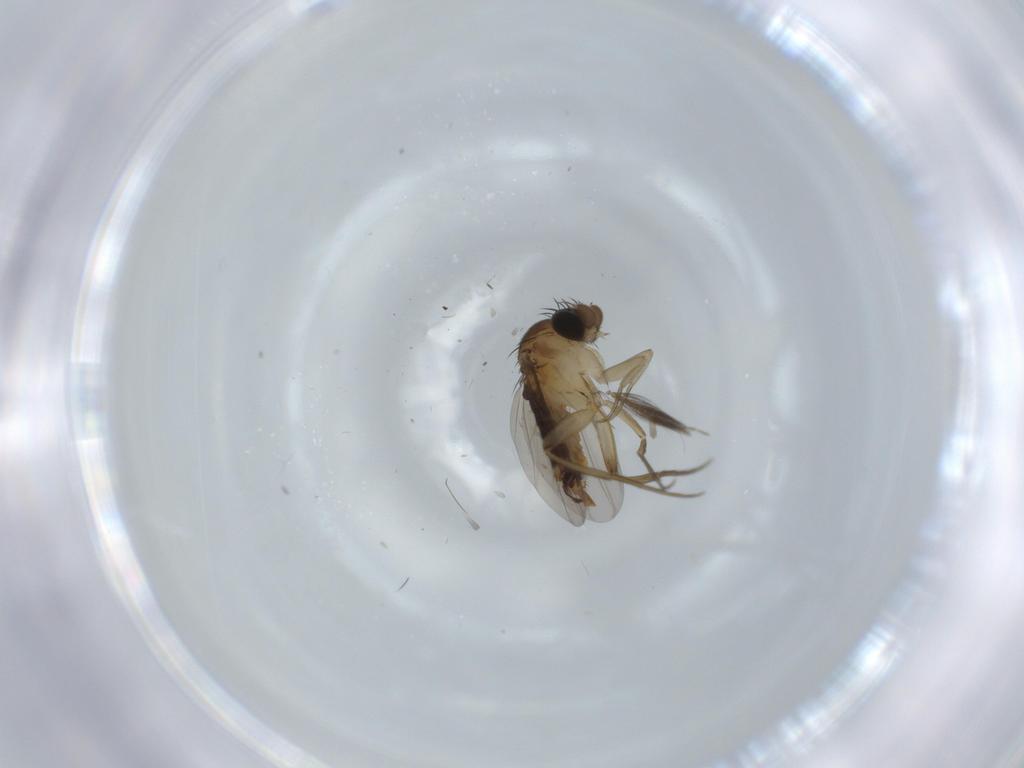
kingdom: Animalia
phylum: Arthropoda
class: Insecta
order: Diptera
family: Phoridae
